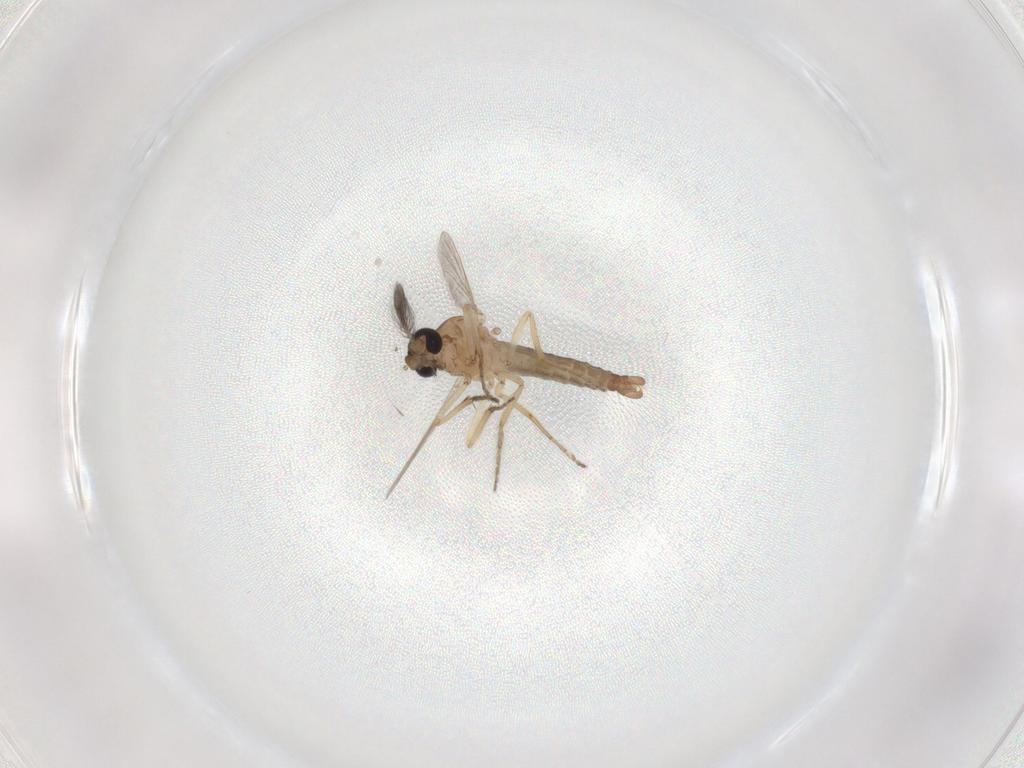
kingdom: Animalia
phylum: Arthropoda
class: Insecta
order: Diptera
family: Ceratopogonidae
